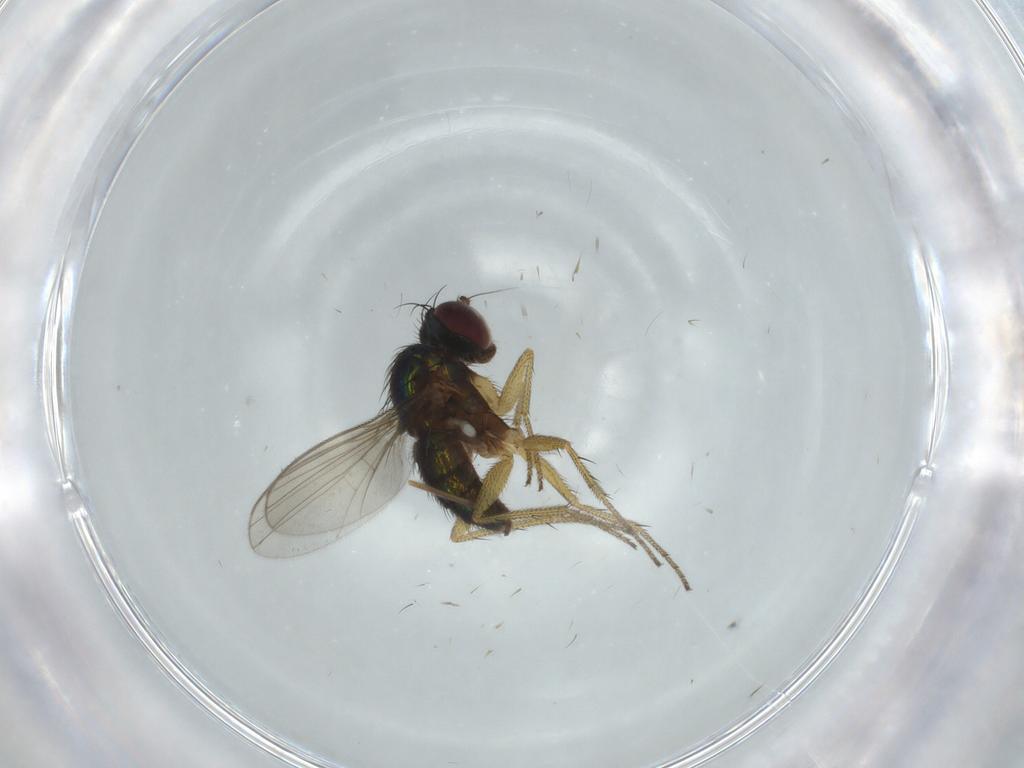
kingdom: Animalia
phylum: Arthropoda
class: Insecta
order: Diptera
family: Dolichopodidae
